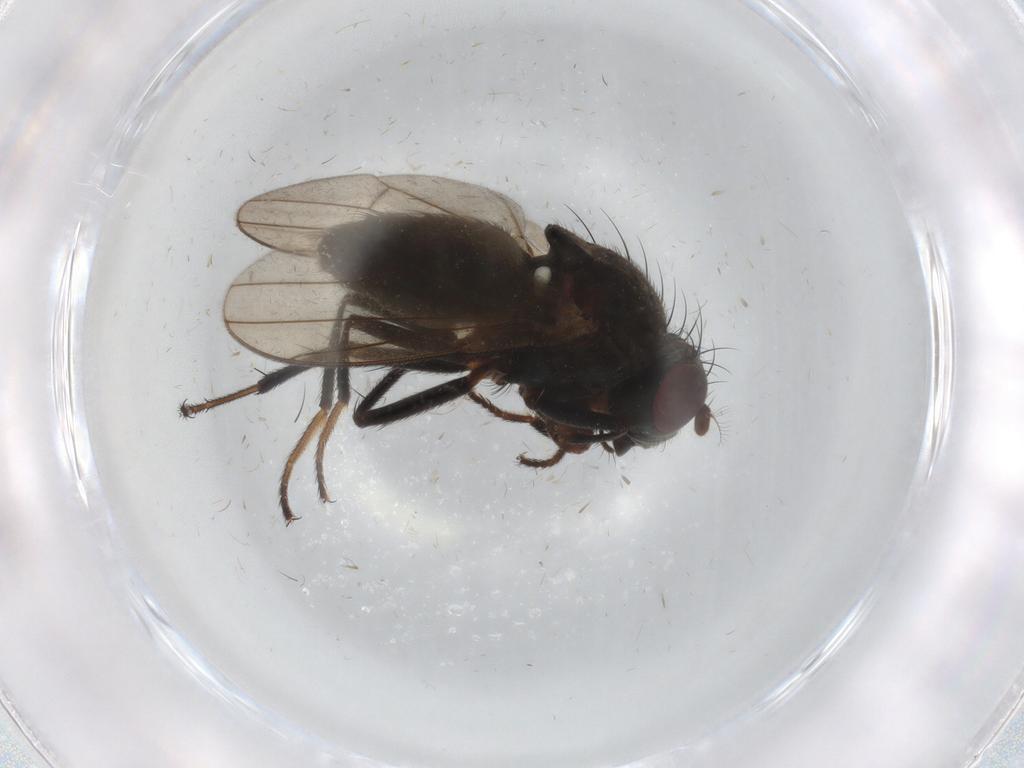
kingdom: Animalia
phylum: Arthropoda
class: Insecta
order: Diptera
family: Ephydridae
